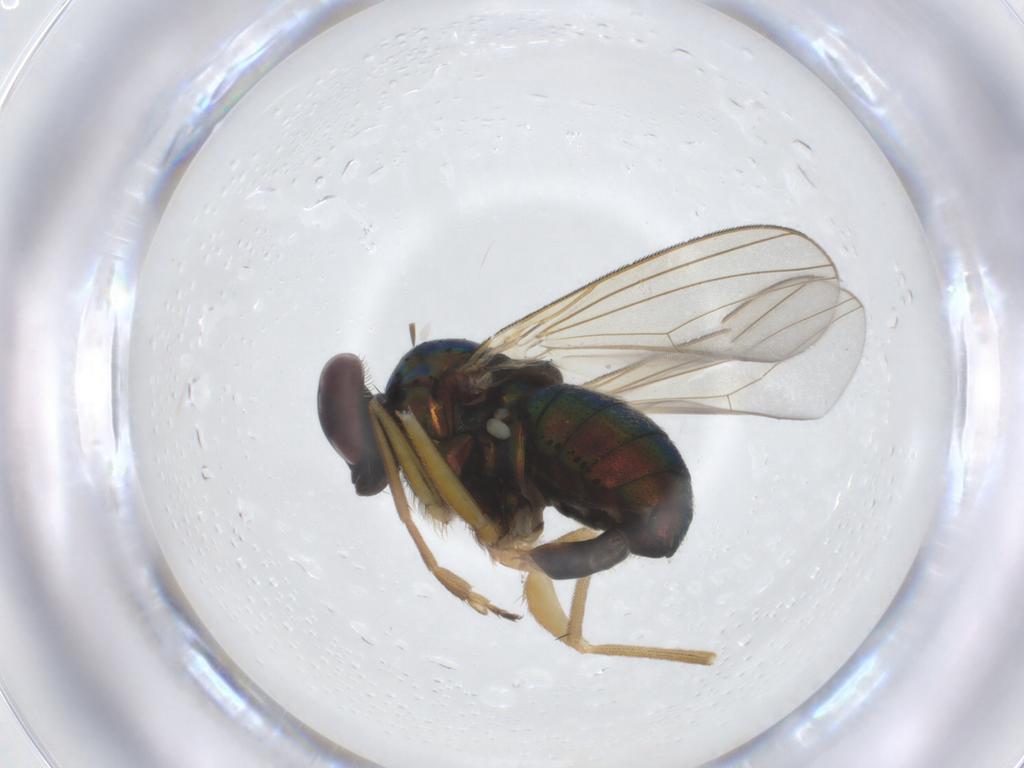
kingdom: Animalia
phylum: Arthropoda
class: Insecta
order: Diptera
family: Dolichopodidae
